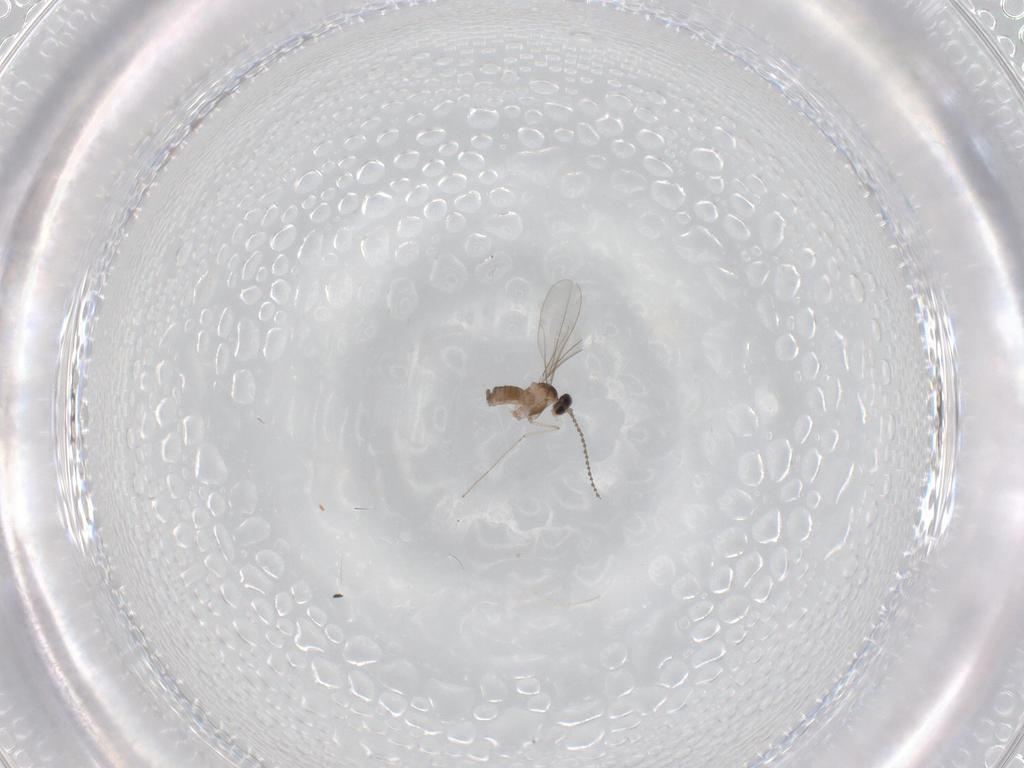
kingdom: Animalia
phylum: Arthropoda
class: Insecta
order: Diptera
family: Cecidomyiidae
